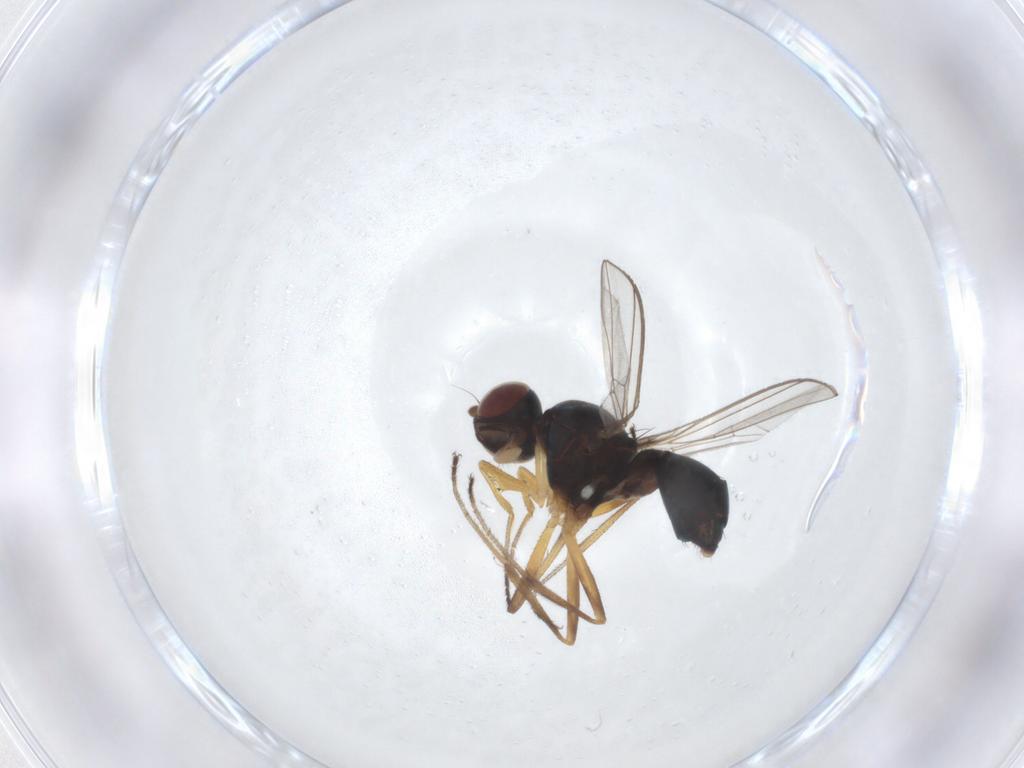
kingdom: Animalia
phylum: Arthropoda
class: Insecta
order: Diptera
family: Sepsidae
